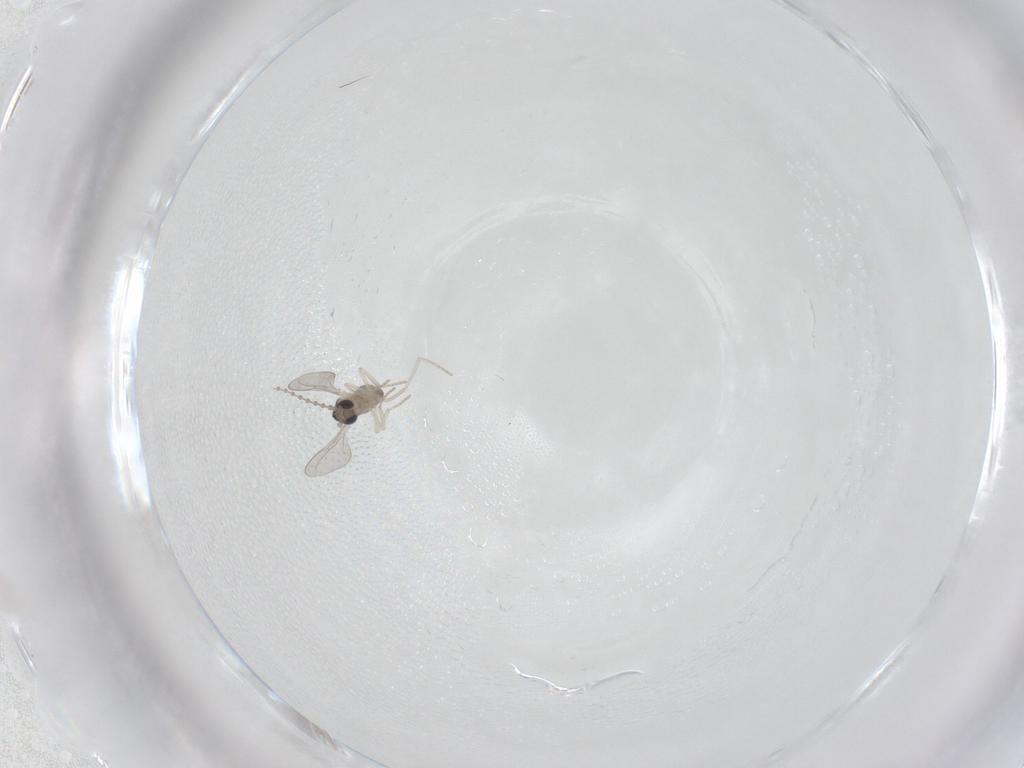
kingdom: Animalia
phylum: Arthropoda
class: Insecta
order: Diptera
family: Cecidomyiidae
